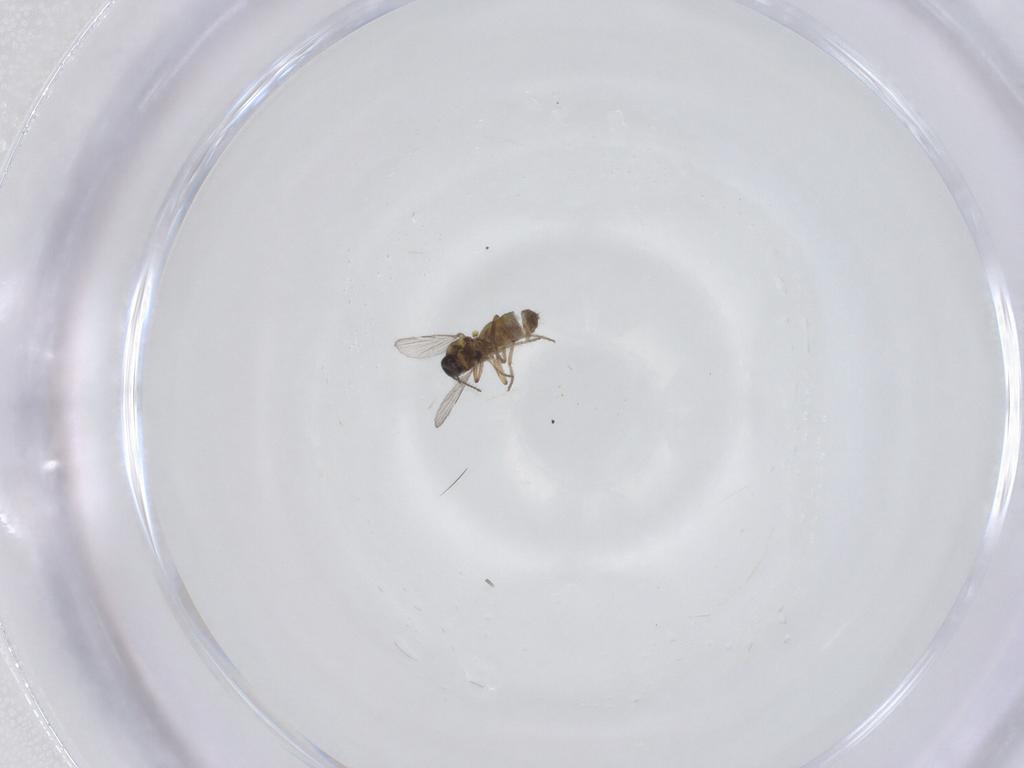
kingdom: Animalia
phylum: Arthropoda
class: Insecta
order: Diptera
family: Ceratopogonidae
